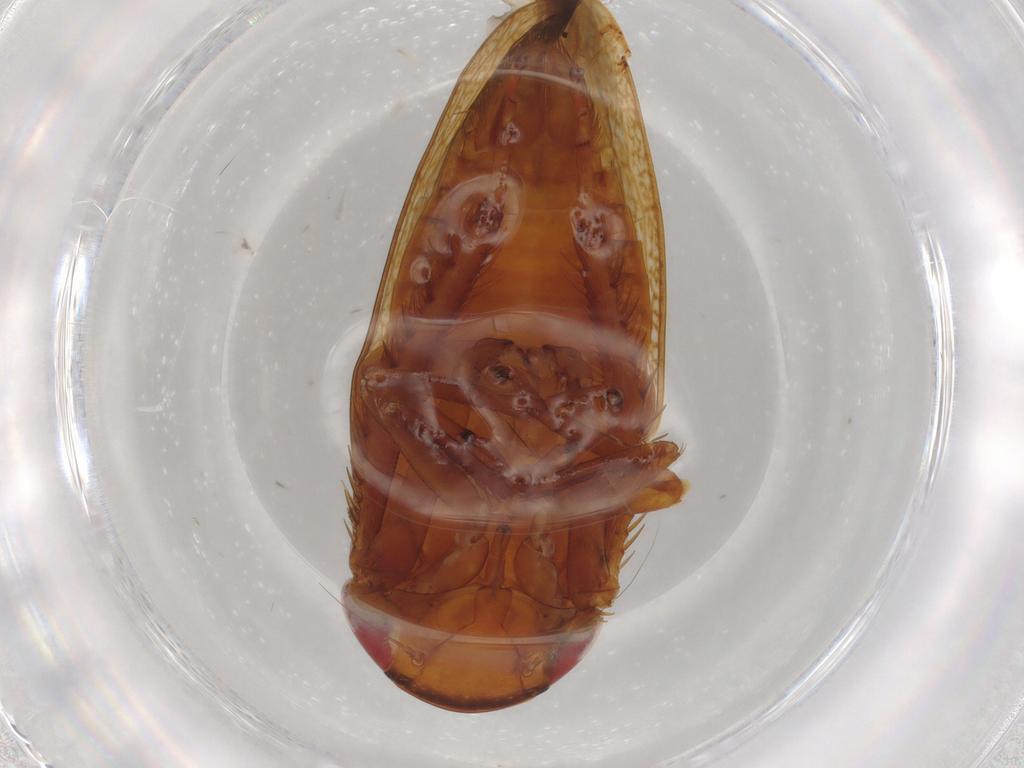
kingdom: Animalia
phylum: Arthropoda
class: Insecta
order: Hemiptera
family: Cicadellidae
